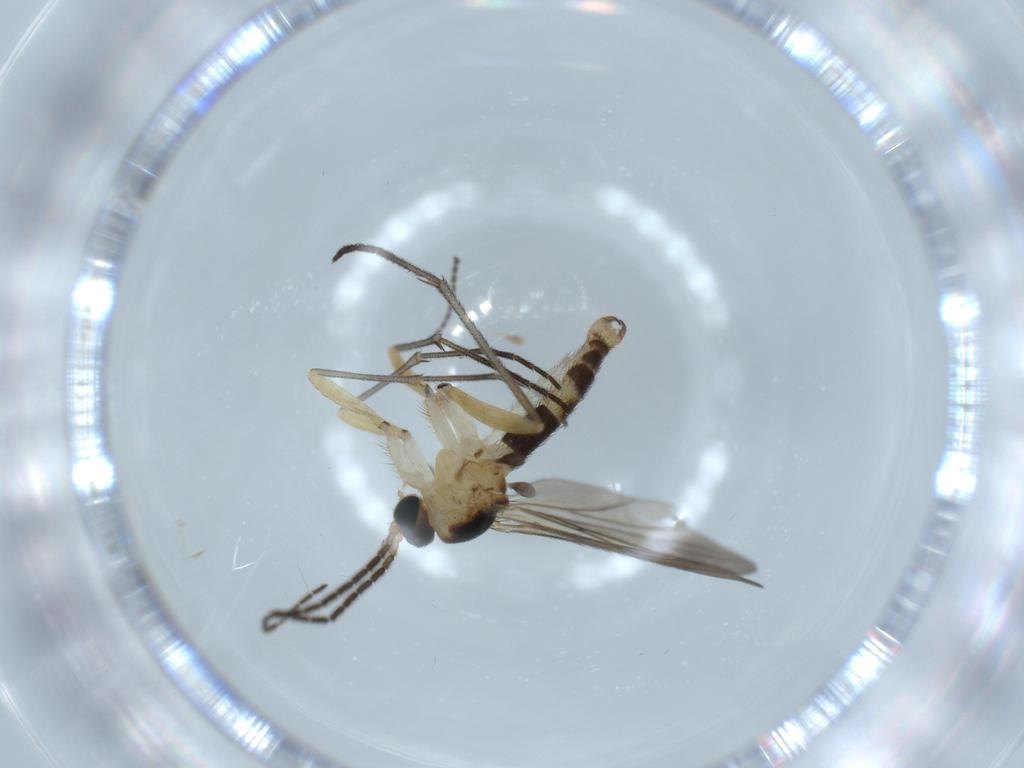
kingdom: Animalia
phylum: Arthropoda
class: Insecta
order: Diptera
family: Sciaridae
